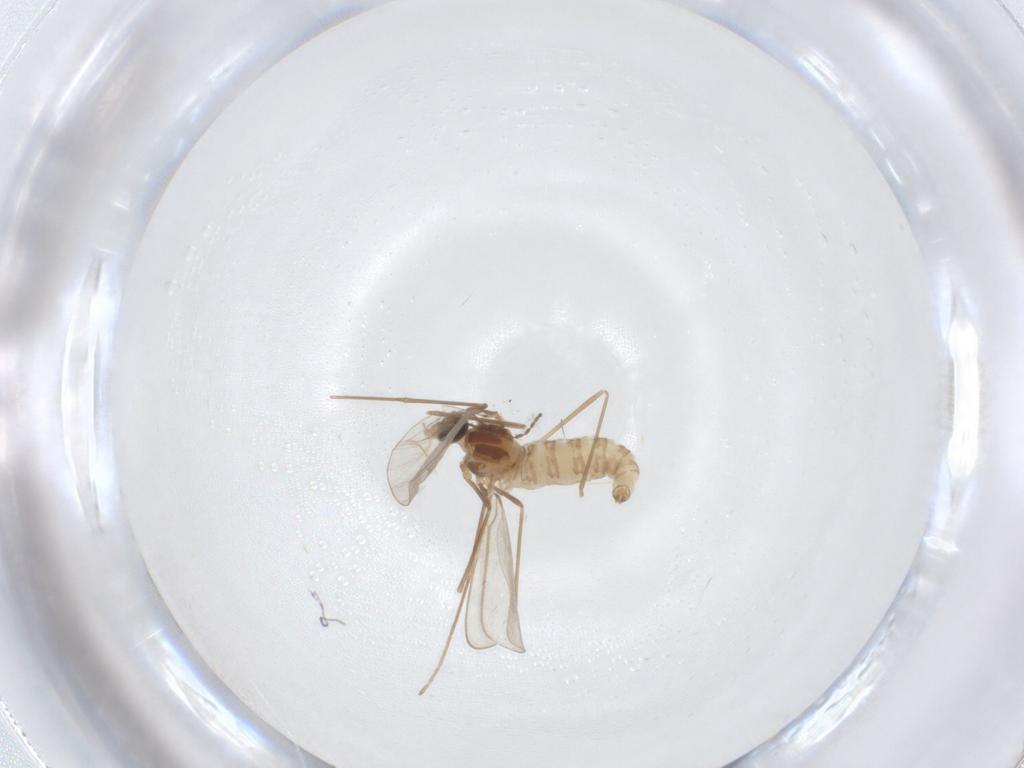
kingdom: Animalia
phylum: Arthropoda
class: Insecta
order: Diptera
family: Cecidomyiidae
